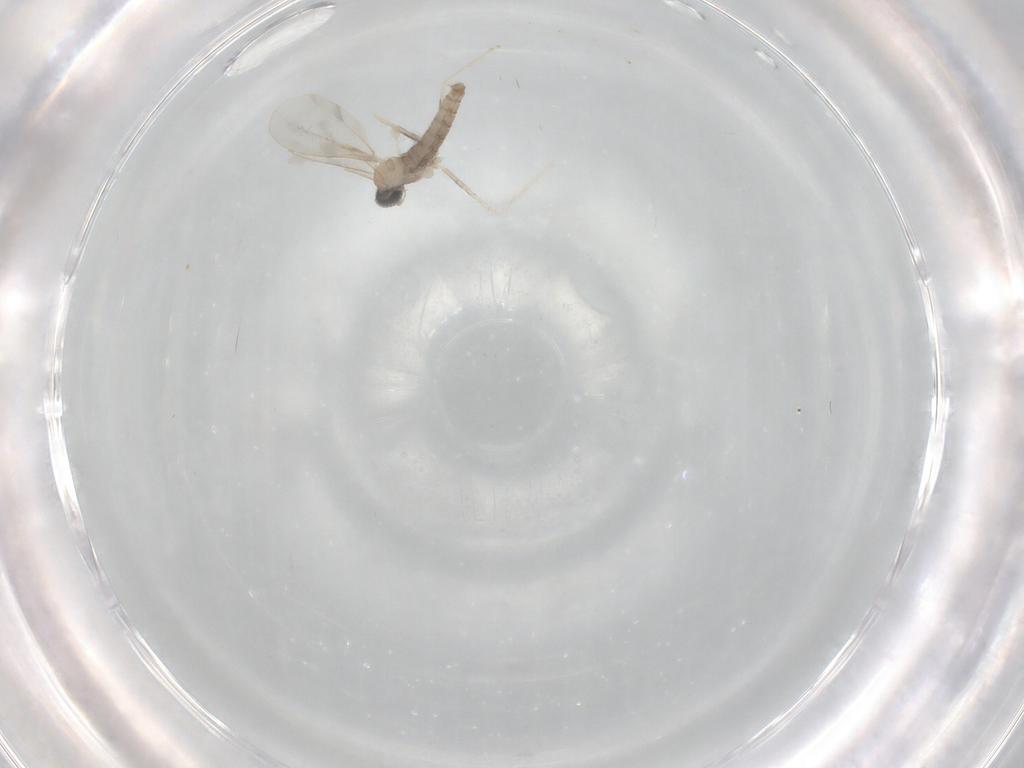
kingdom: Animalia
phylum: Arthropoda
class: Insecta
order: Diptera
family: Cecidomyiidae
